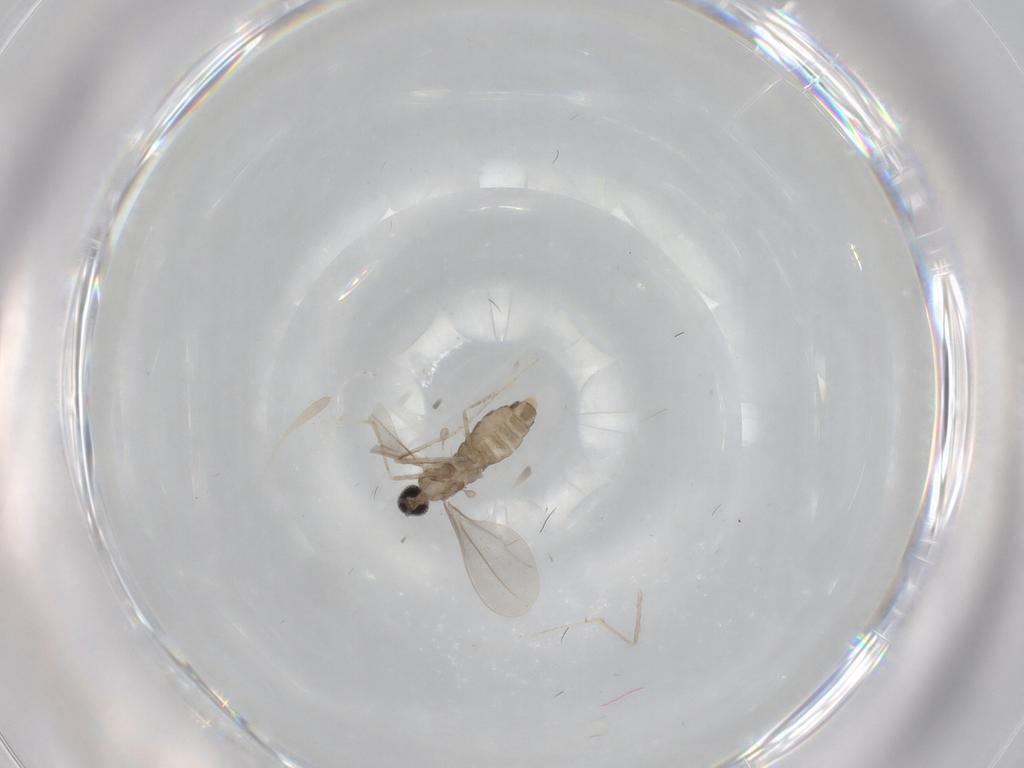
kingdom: Animalia
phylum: Arthropoda
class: Insecta
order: Diptera
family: Cecidomyiidae
